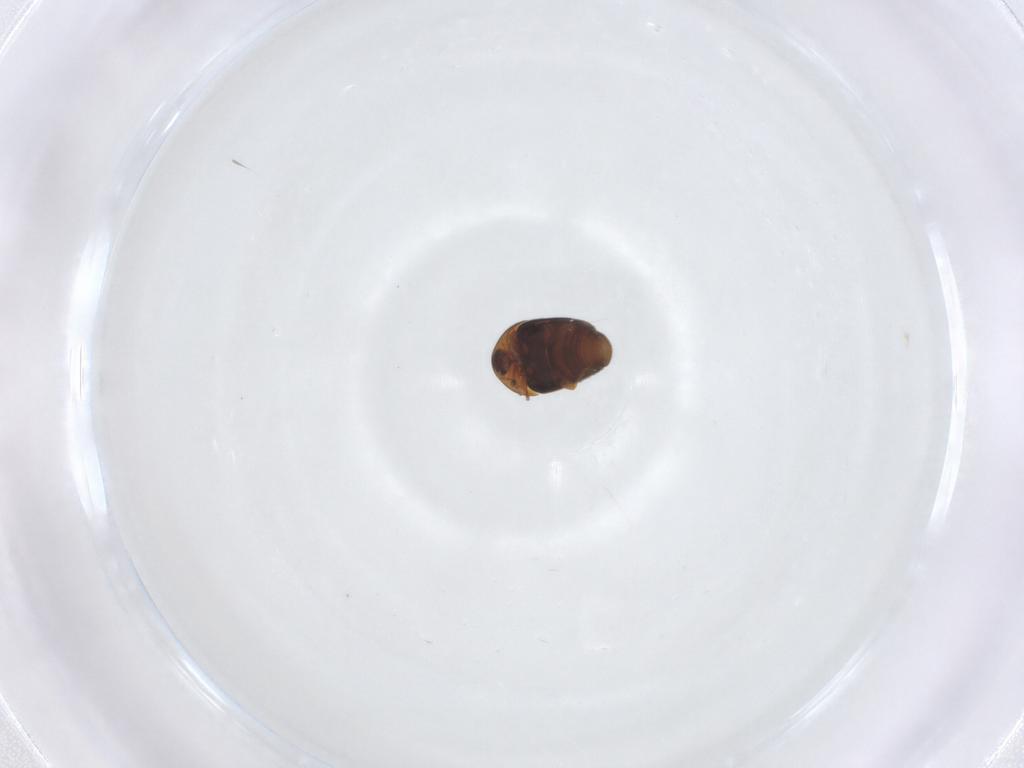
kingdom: Animalia
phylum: Arthropoda
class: Insecta
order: Coleoptera
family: Corylophidae
